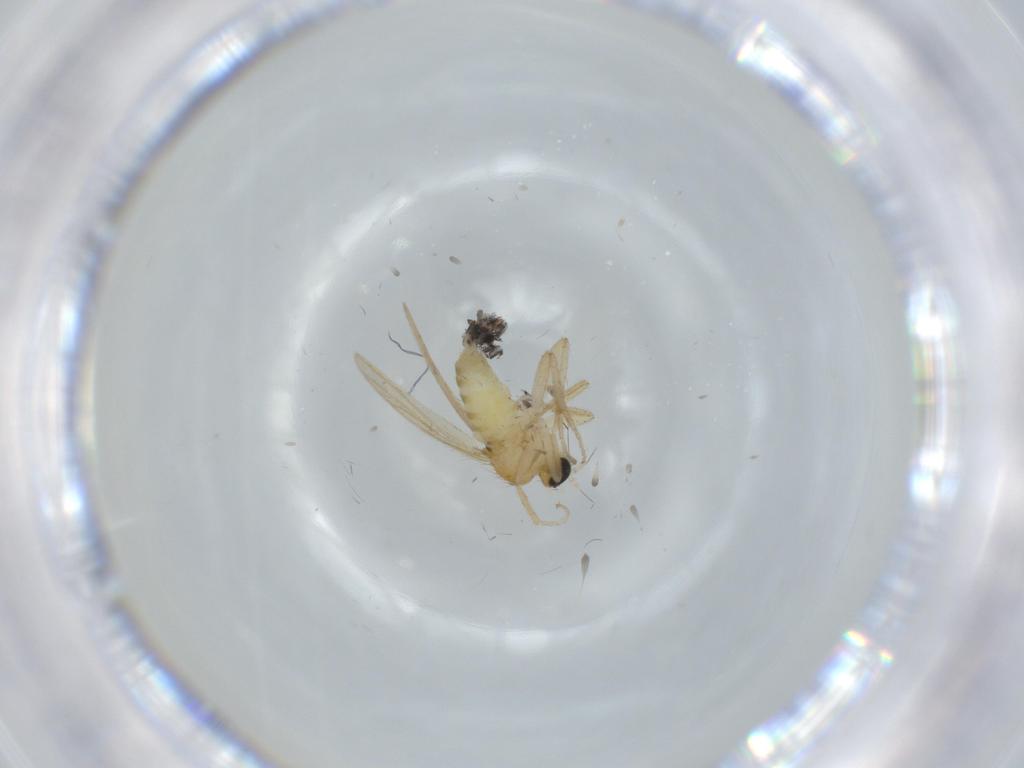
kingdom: Animalia
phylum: Arthropoda
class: Insecta
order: Diptera
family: Hybotidae
